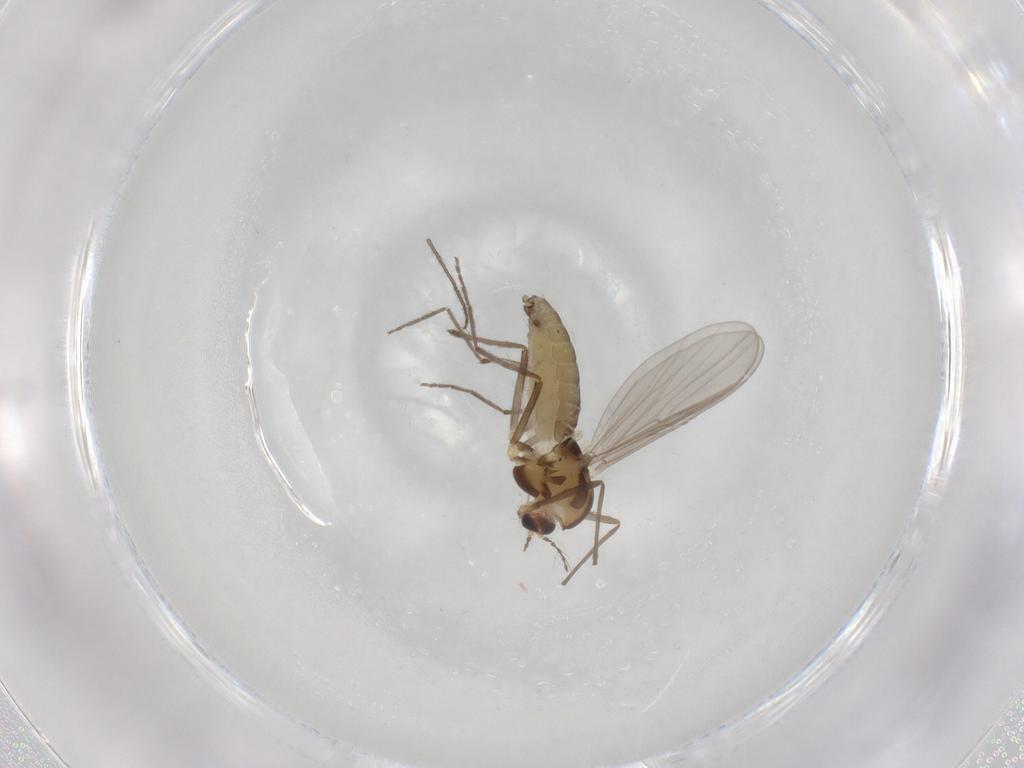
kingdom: Animalia
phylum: Arthropoda
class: Insecta
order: Diptera
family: Chironomidae
